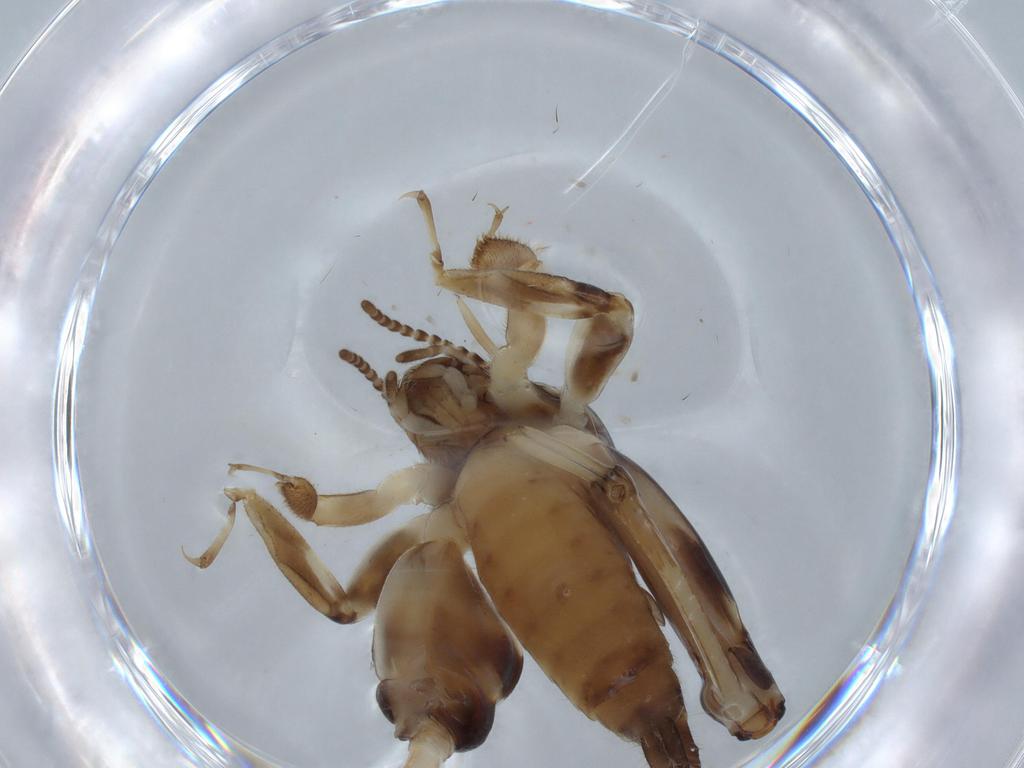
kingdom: Animalia
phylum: Arthropoda
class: Insecta
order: Orthoptera
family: Tridactylidae
